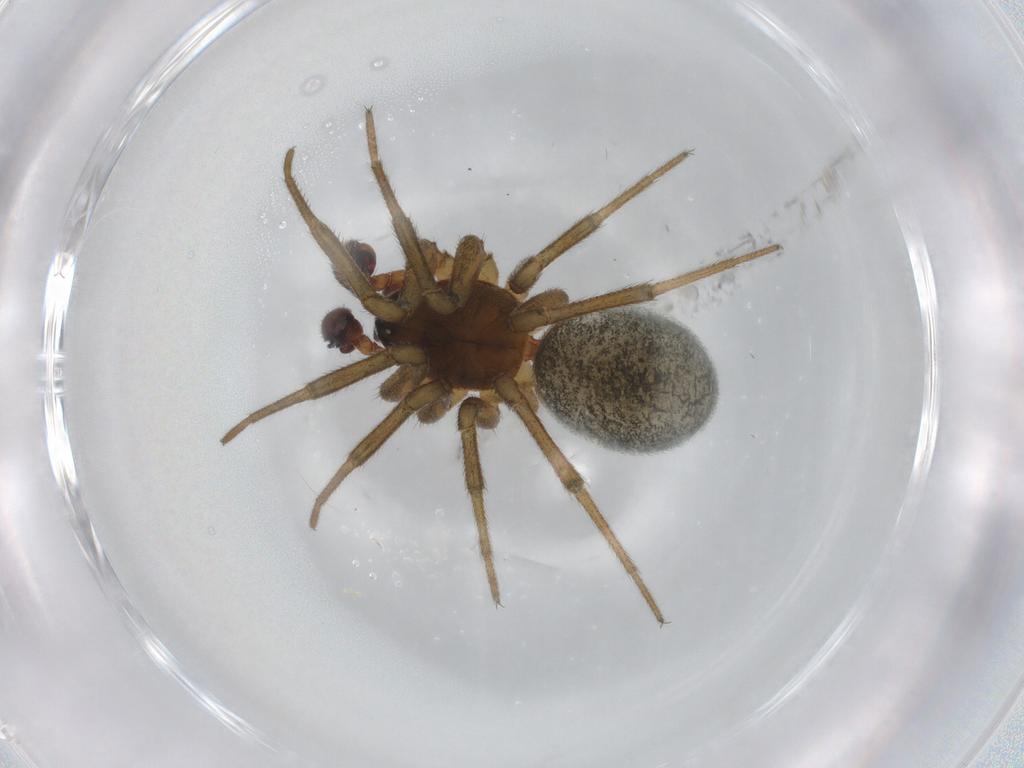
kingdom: Animalia
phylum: Arthropoda
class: Arachnida
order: Araneae
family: Linyphiidae
